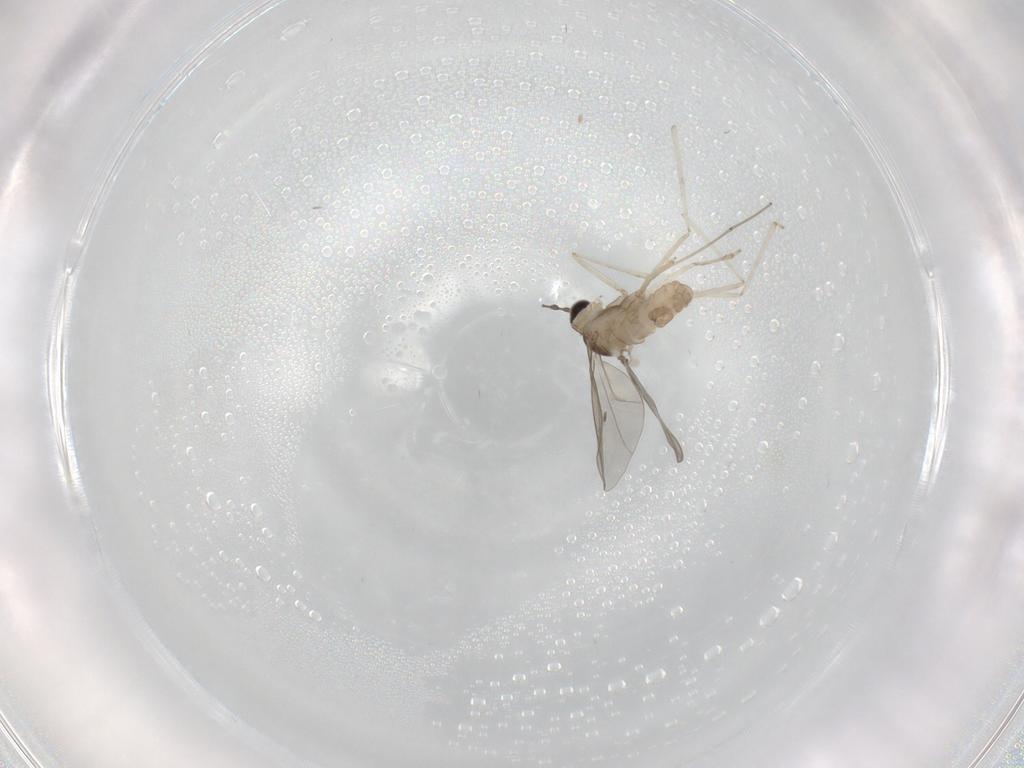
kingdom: Animalia
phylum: Arthropoda
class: Insecta
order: Diptera
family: Cecidomyiidae
